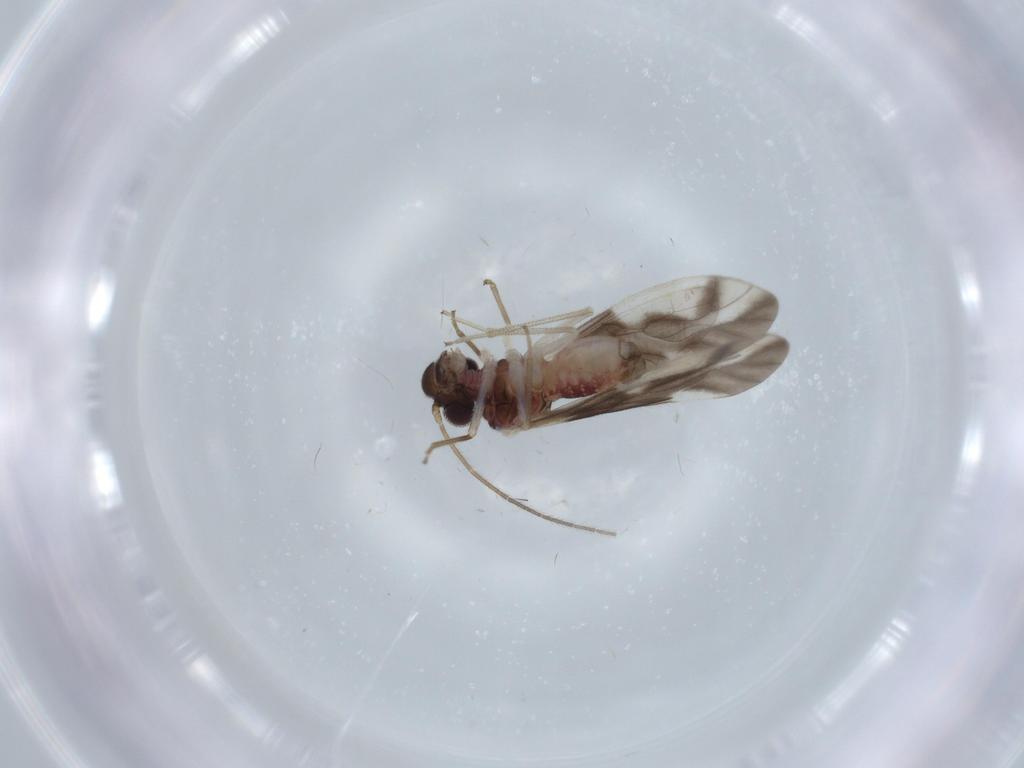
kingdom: Animalia
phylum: Arthropoda
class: Insecta
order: Psocodea
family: Caeciliusidae
